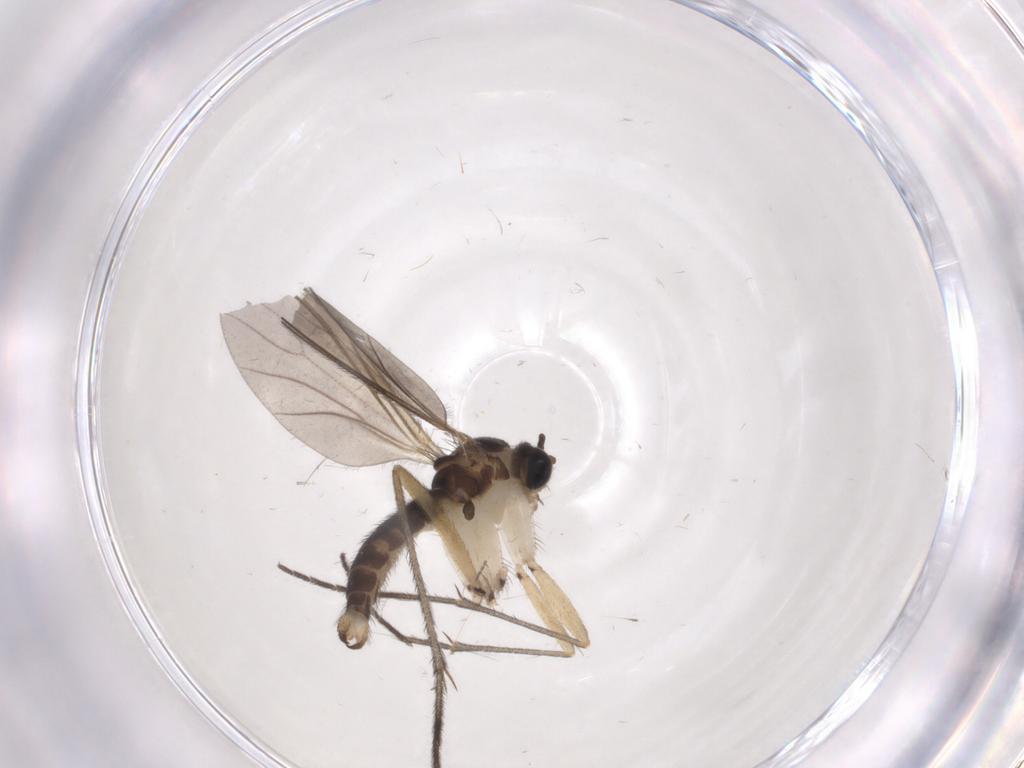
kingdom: Animalia
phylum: Arthropoda
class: Insecta
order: Diptera
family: Sciaridae
